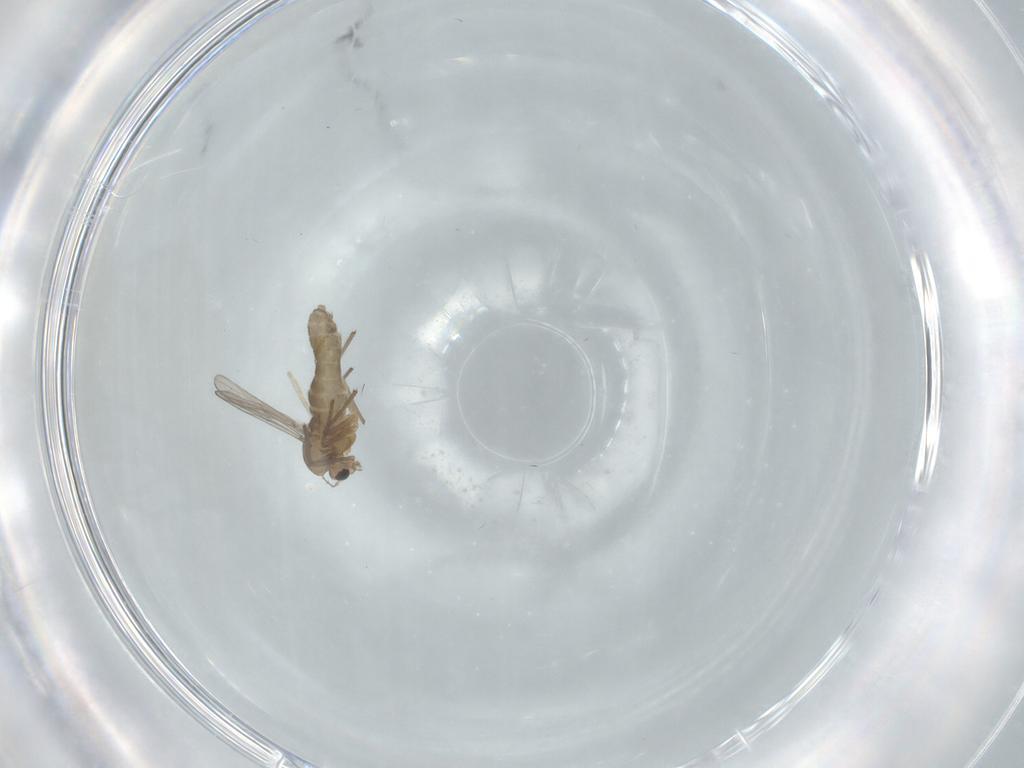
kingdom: Animalia
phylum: Arthropoda
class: Insecta
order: Diptera
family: Chironomidae
